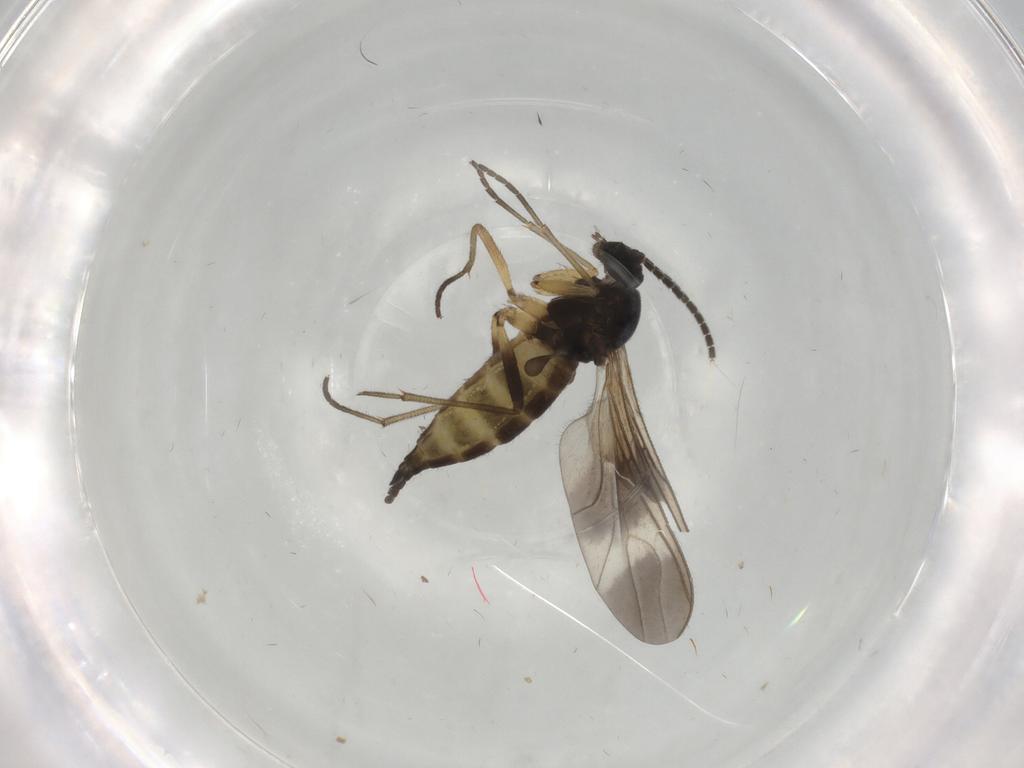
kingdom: Animalia
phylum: Arthropoda
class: Insecta
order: Diptera
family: Sciaridae
